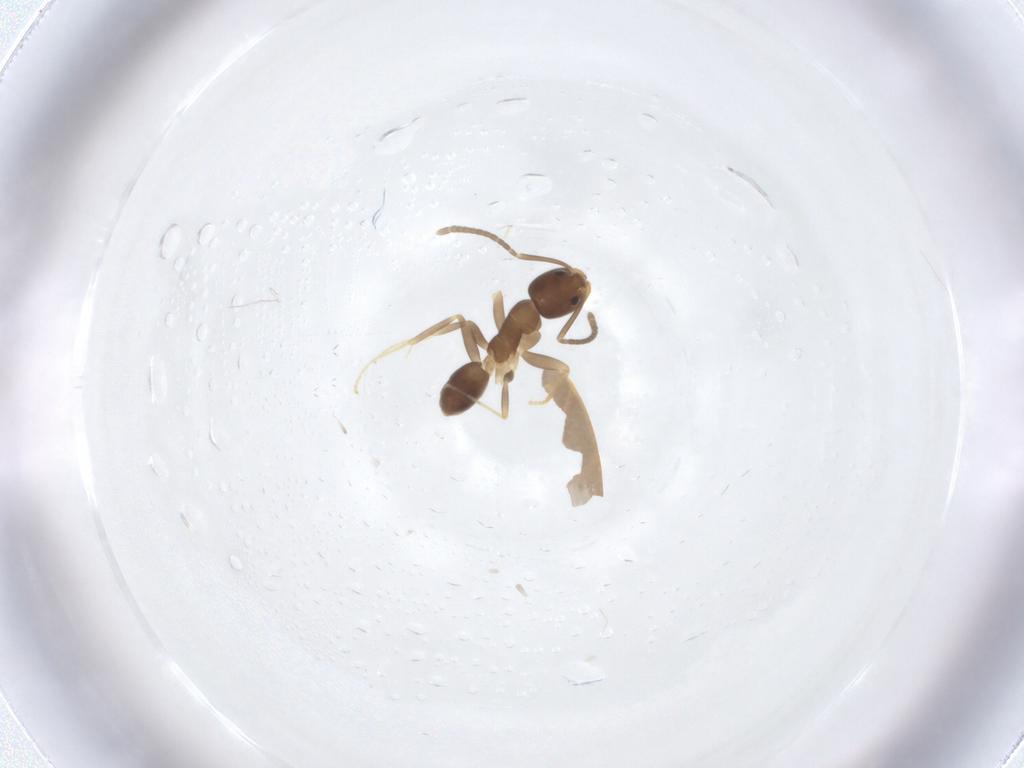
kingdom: Animalia
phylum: Arthropoda
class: Insecta
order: Hymenoptera
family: Formicidae
